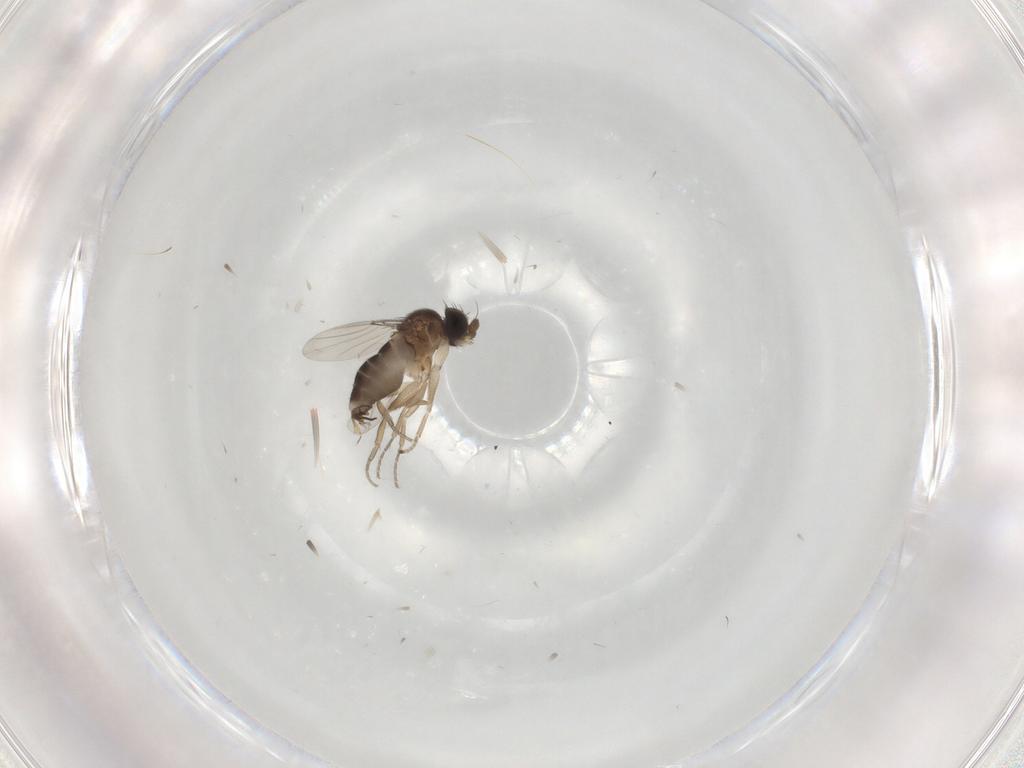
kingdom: Animalia
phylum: Arthropoda
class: Insecta
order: Diptera
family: Phoridae
